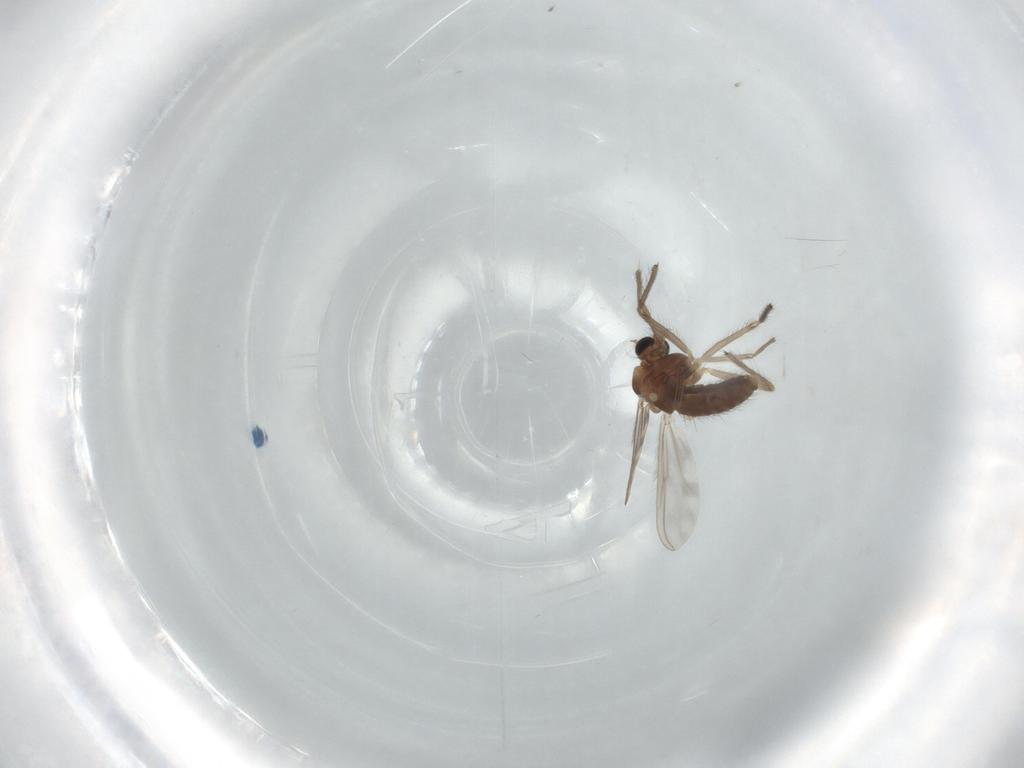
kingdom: Animalia
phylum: Arthropoda
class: Insecta
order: Diptera
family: Chironomidae
